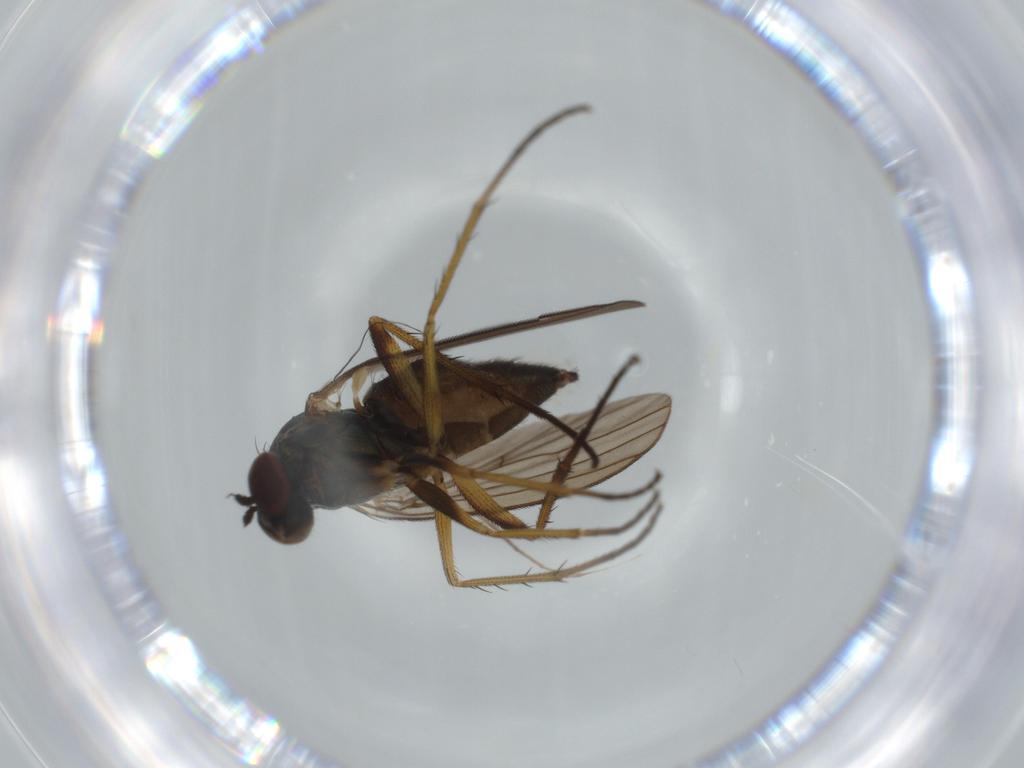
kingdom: Animalia
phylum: Arthropoda
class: Insecta
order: Diptera
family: Dolichopodidae
